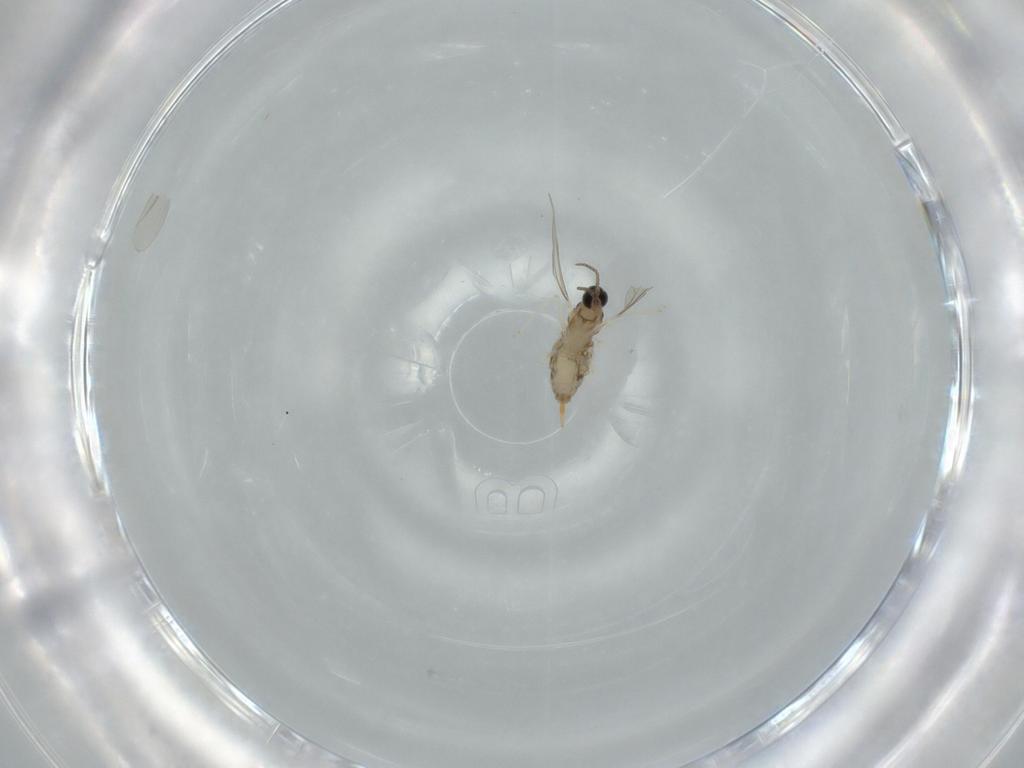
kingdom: Animalia
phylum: Arthropoda
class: Insecta
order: Diptera
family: Cecidomyiidae
